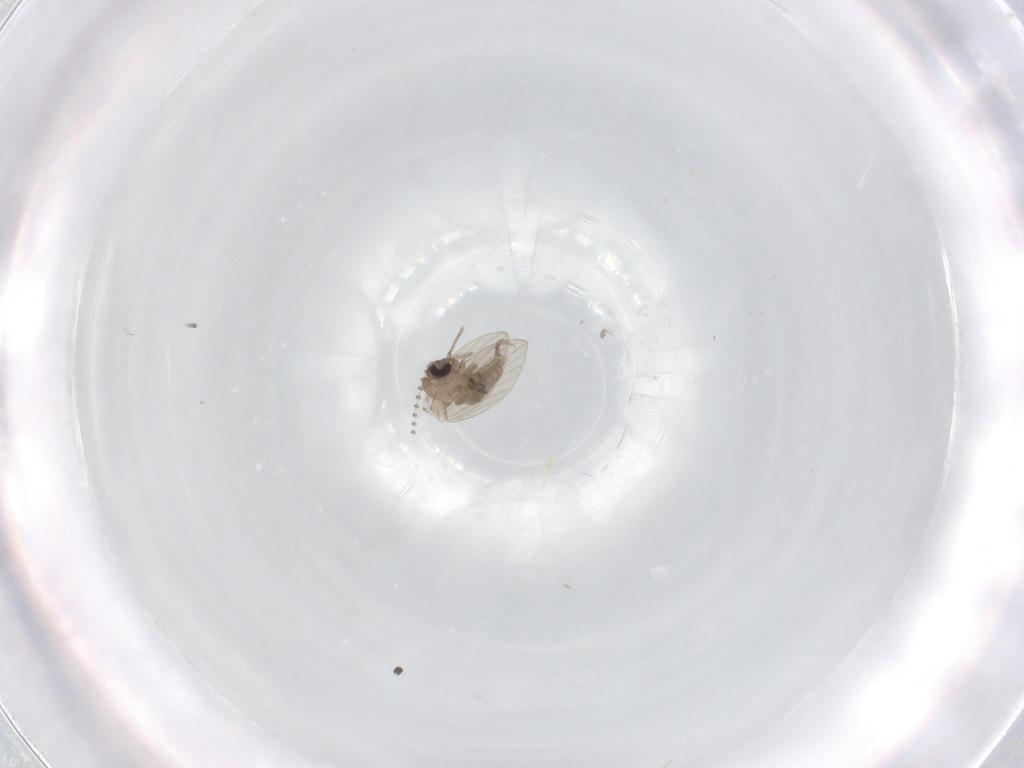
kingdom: Animalia
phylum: Arthropoda
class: Insecta
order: Diptera
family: Psychodidae
